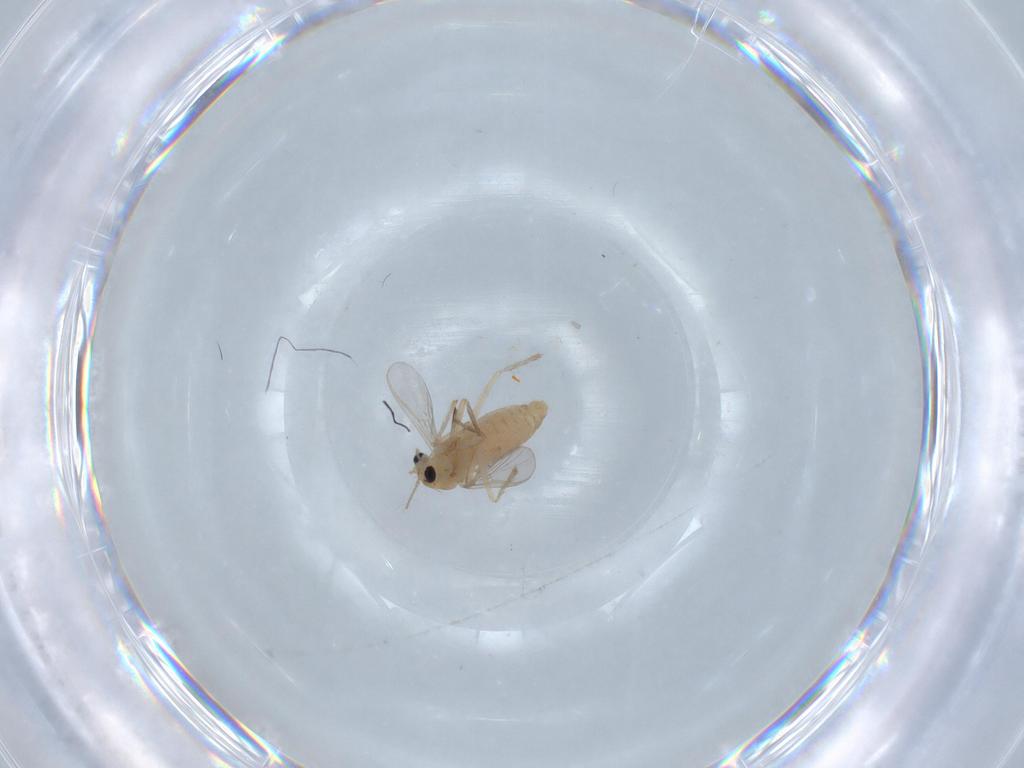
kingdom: Animalia
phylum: Arthropoda
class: Insecta
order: Diptera
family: Chironomidae
